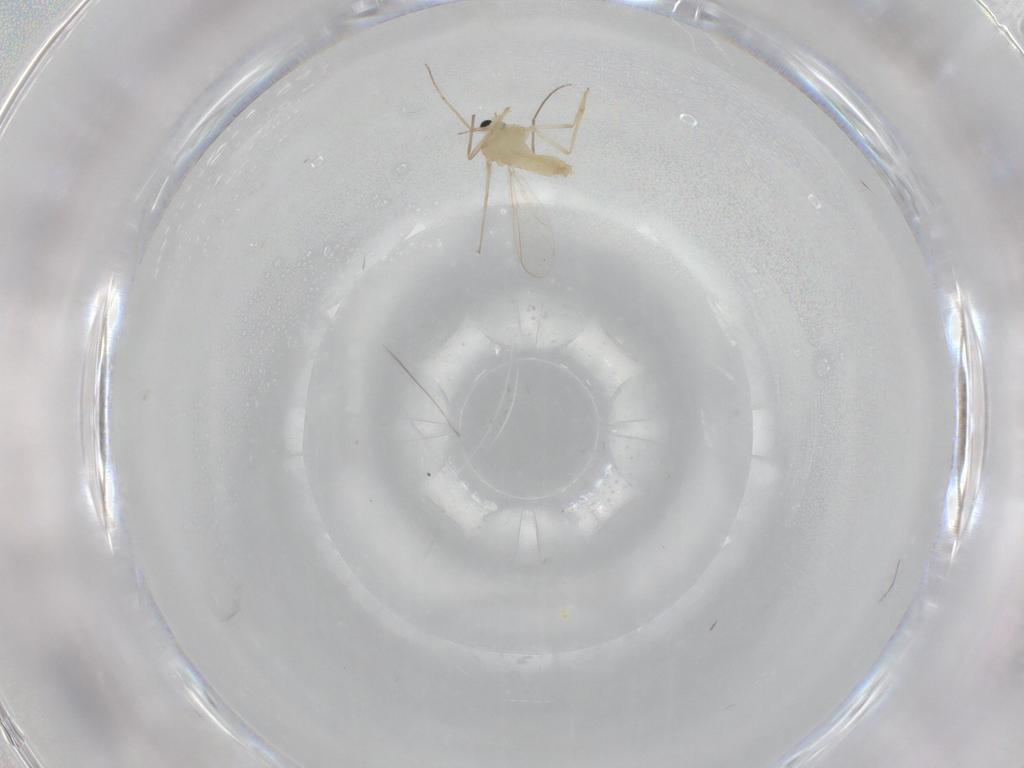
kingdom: Animalia
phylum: Arthropoda
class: Insecta
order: Diptera
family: Chironomidae
